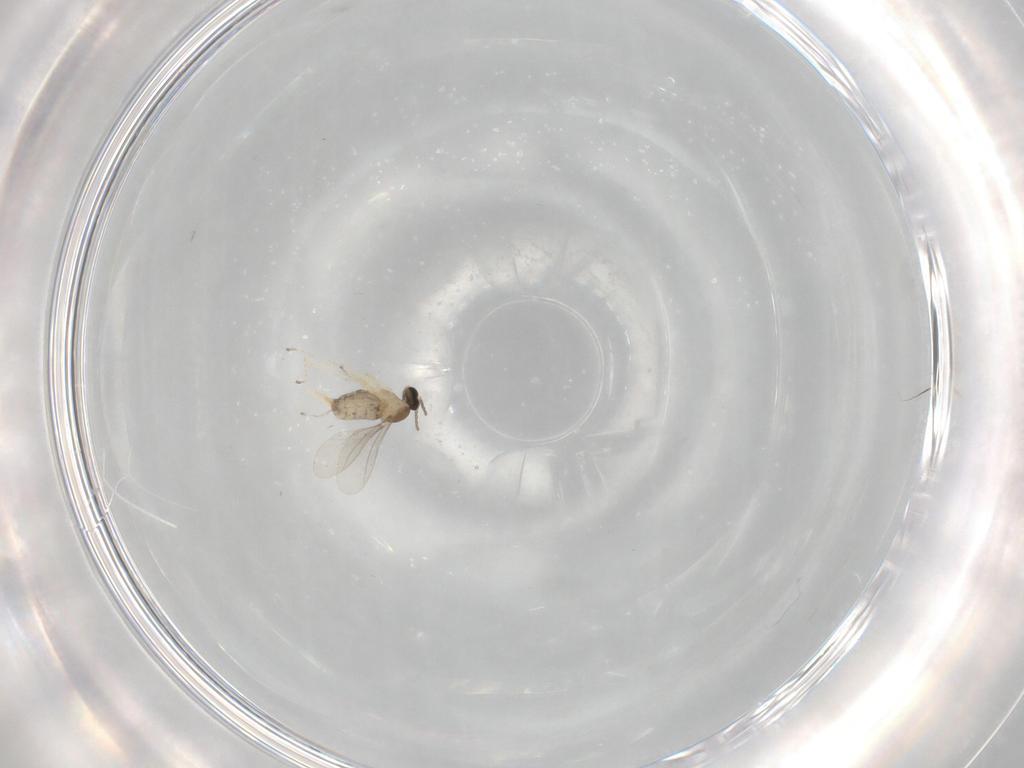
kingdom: Animalia
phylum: Arthropoda
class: Insecta
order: Diptera
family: Cecidomyiidae
